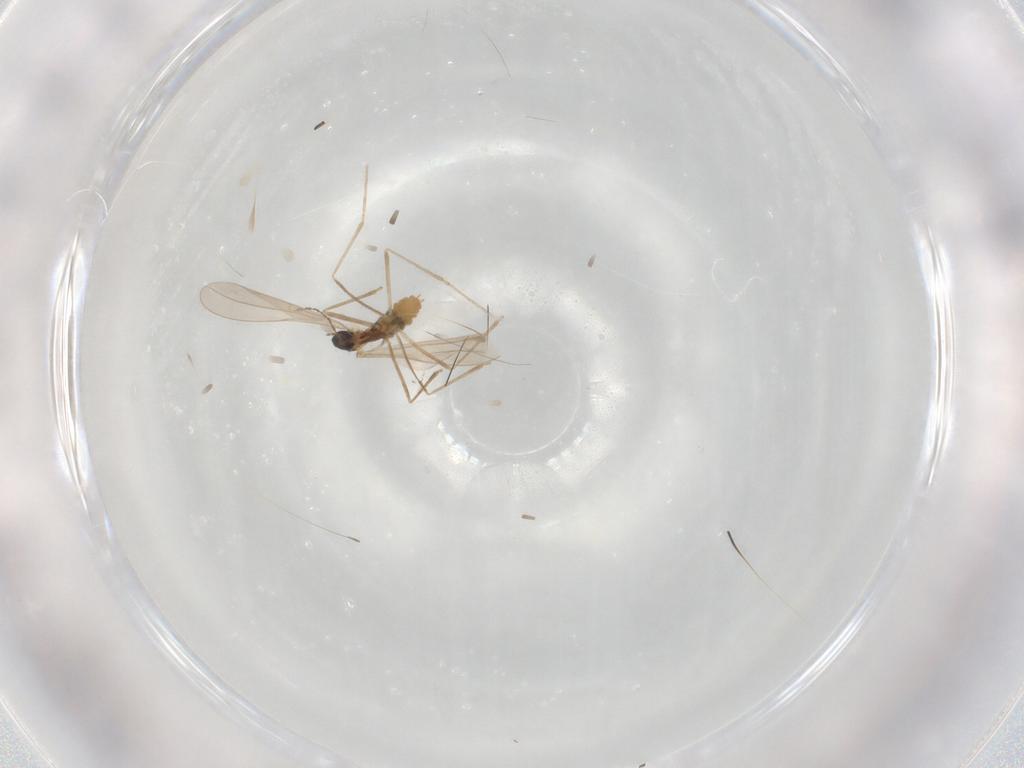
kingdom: Animalia
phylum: Arthropoda
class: Insecta
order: Diptera
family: Cecidomyiidae
